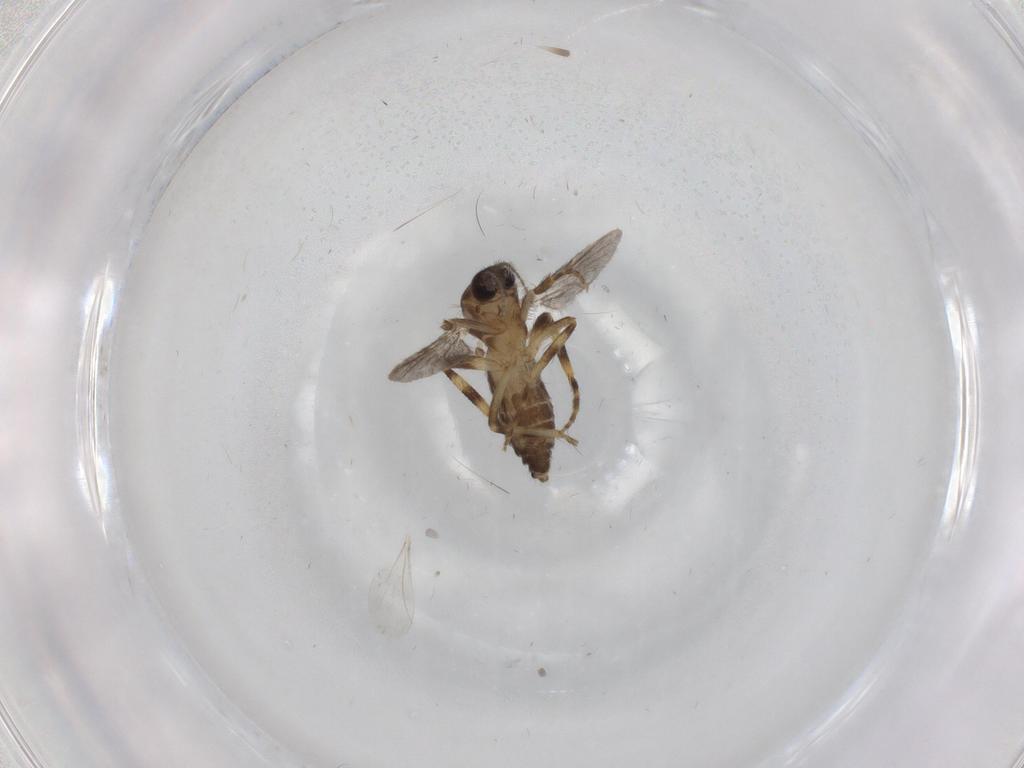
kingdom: Animalia
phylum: Arthropoda
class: Insecta
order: Diptera
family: Ceratopogonidae
